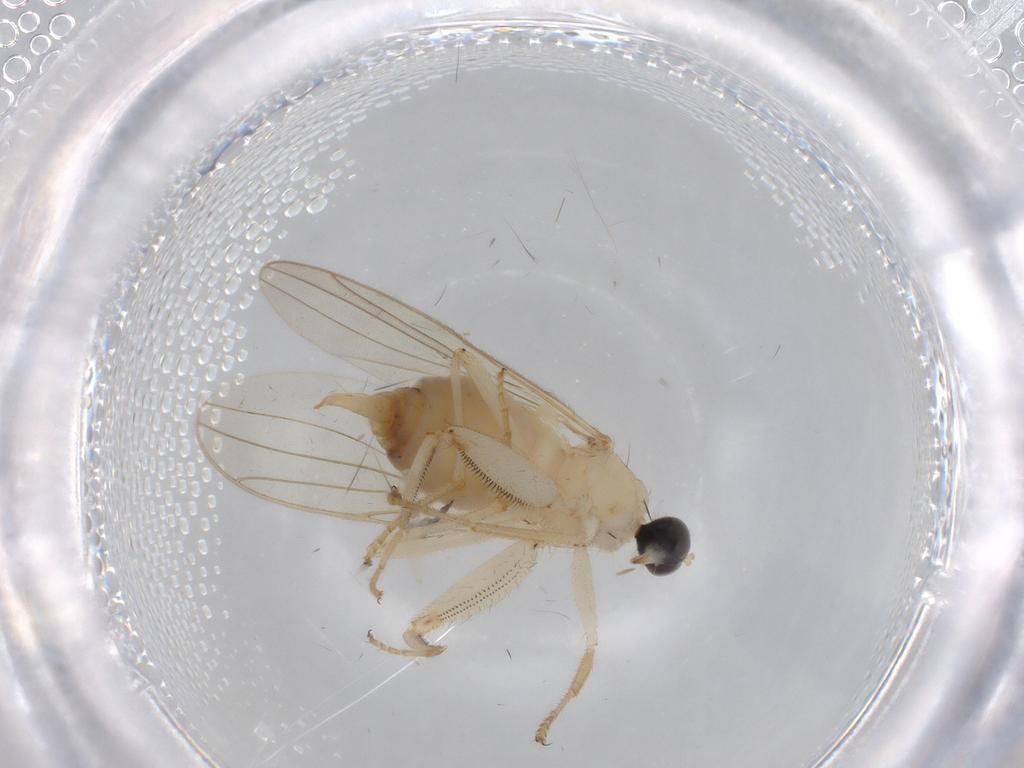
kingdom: Animalia
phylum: Arthropoda
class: Insecta
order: Diptera
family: Hybotidae
